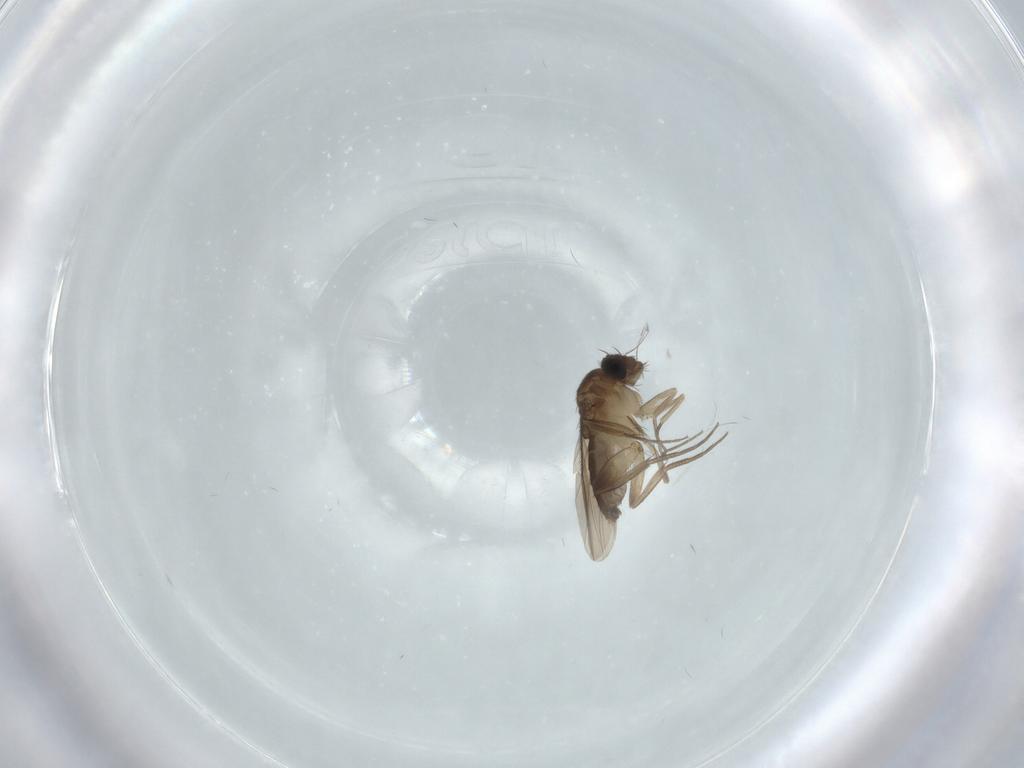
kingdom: Animalia
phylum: Arthropoda
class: Insecta
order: Diptera
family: Phoridae
